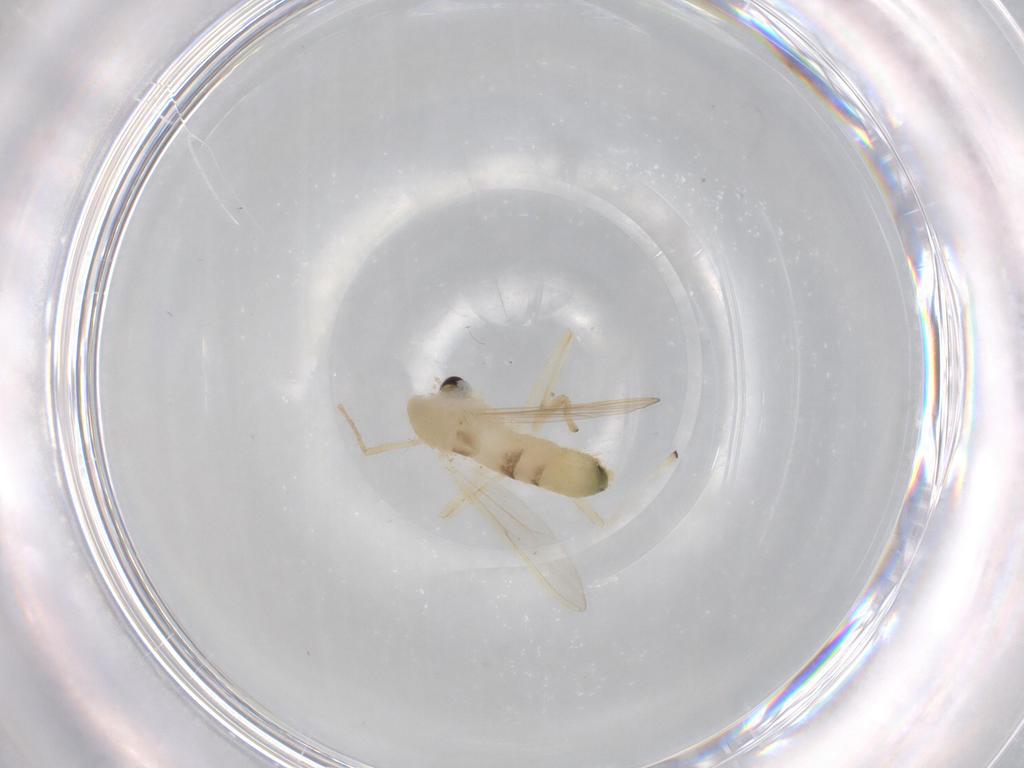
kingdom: Animalia
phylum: Arthropoda
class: Insecta
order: Diptera
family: Chironomidae
